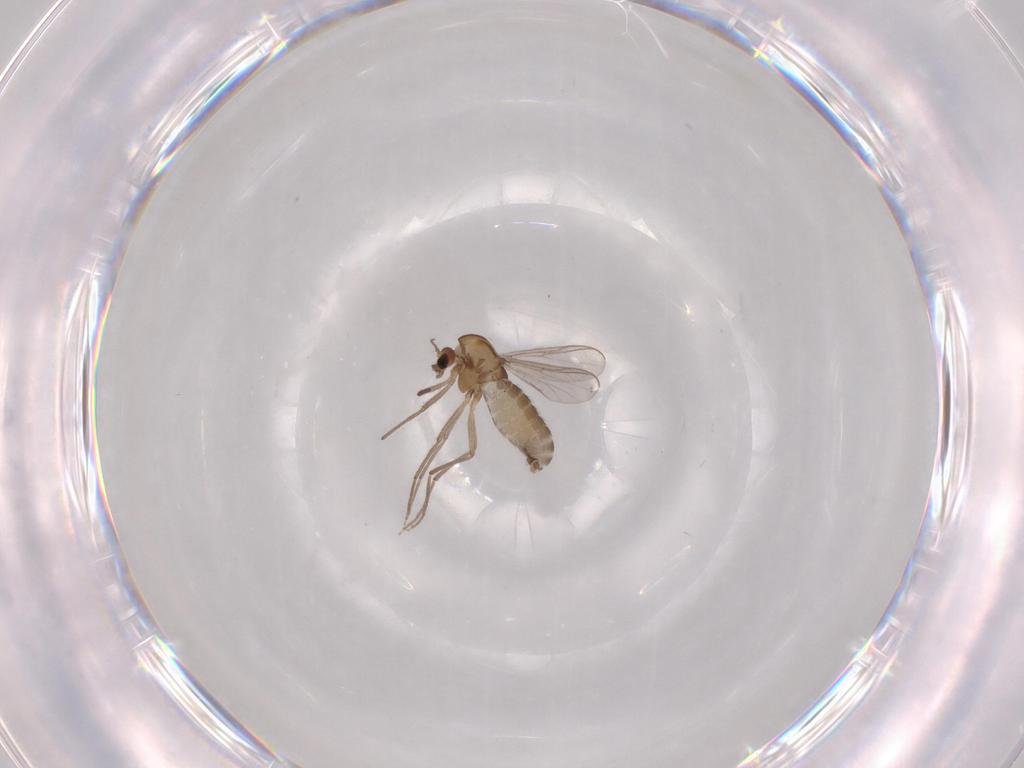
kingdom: Animalia
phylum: Arthropoda
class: Insecta
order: Diptera
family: Chironomidae
